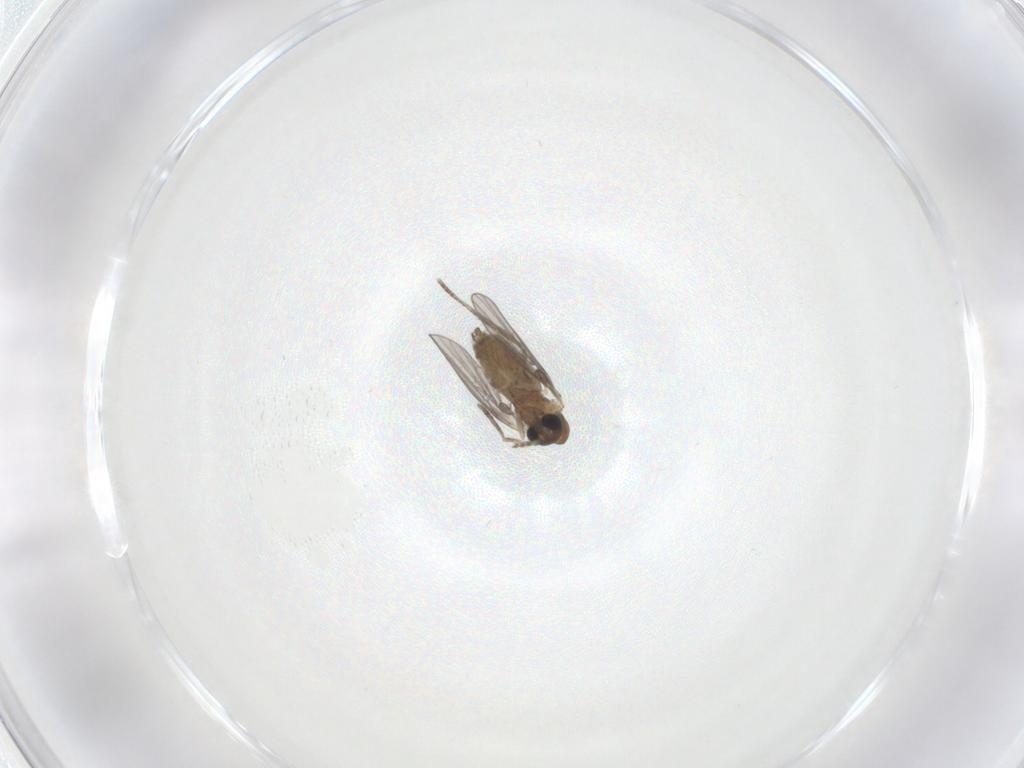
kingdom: Animalia
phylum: Arthropoda
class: Insecta
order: Diptera
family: Chironomidae
